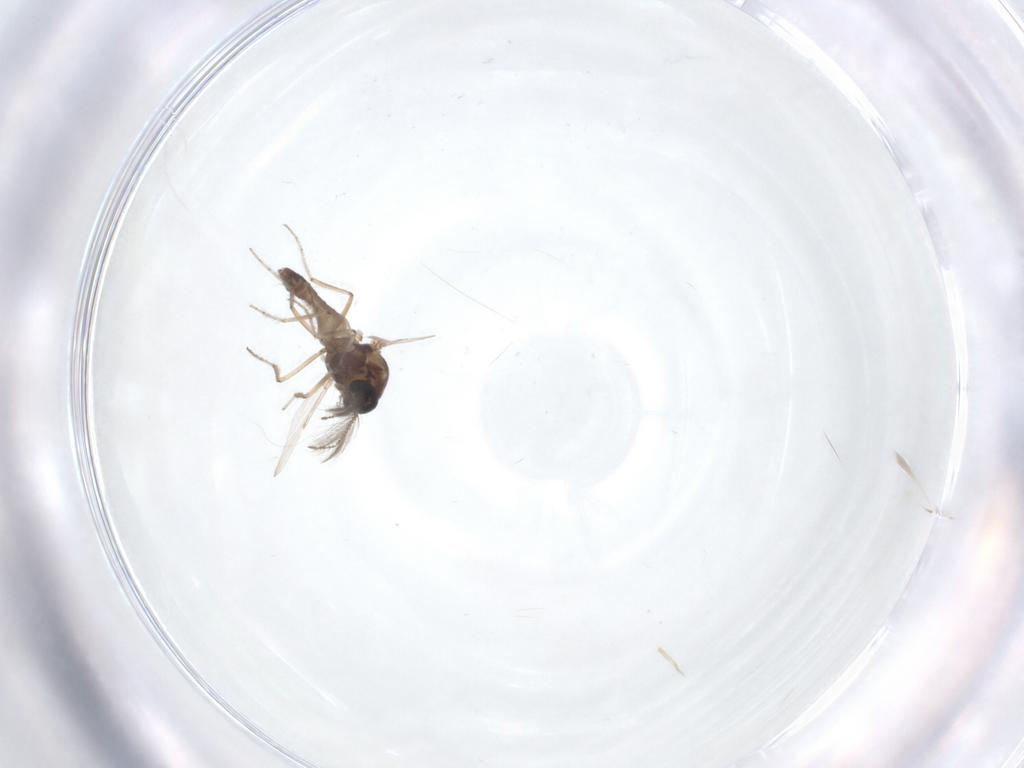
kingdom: Animalia
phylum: Arthropoda
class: Insecta
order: Diptera
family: Ceratopogonidae
